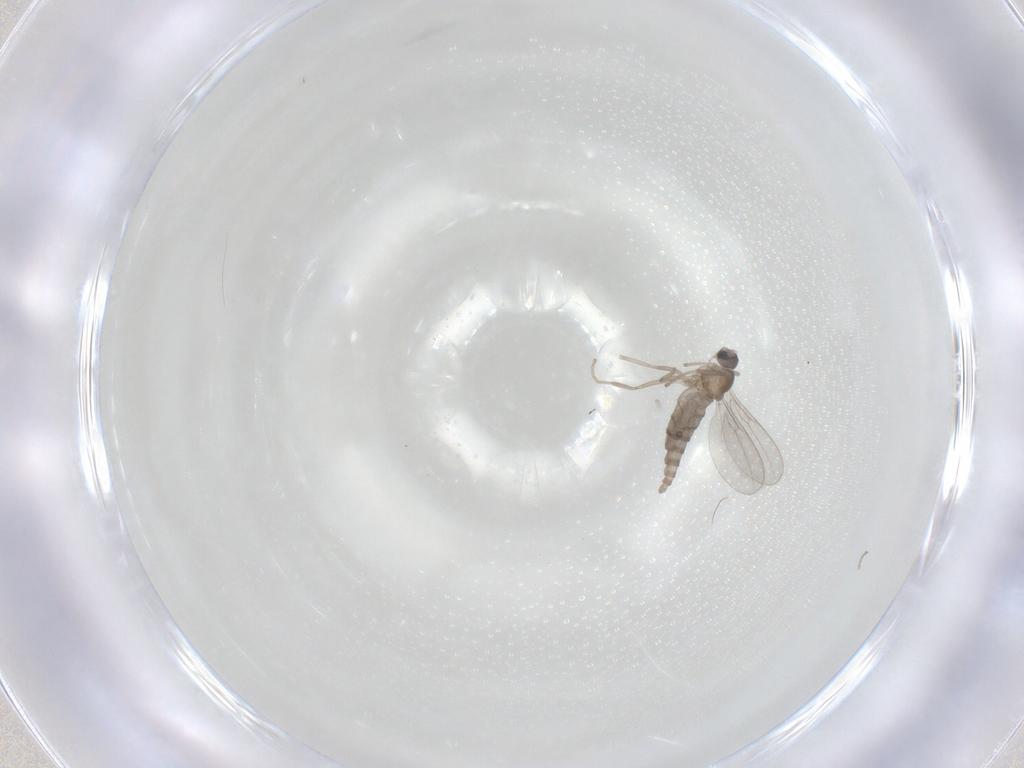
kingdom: Animalia
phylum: Arthropoda
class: Insecta
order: Diptera
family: Cecidomyiidae
